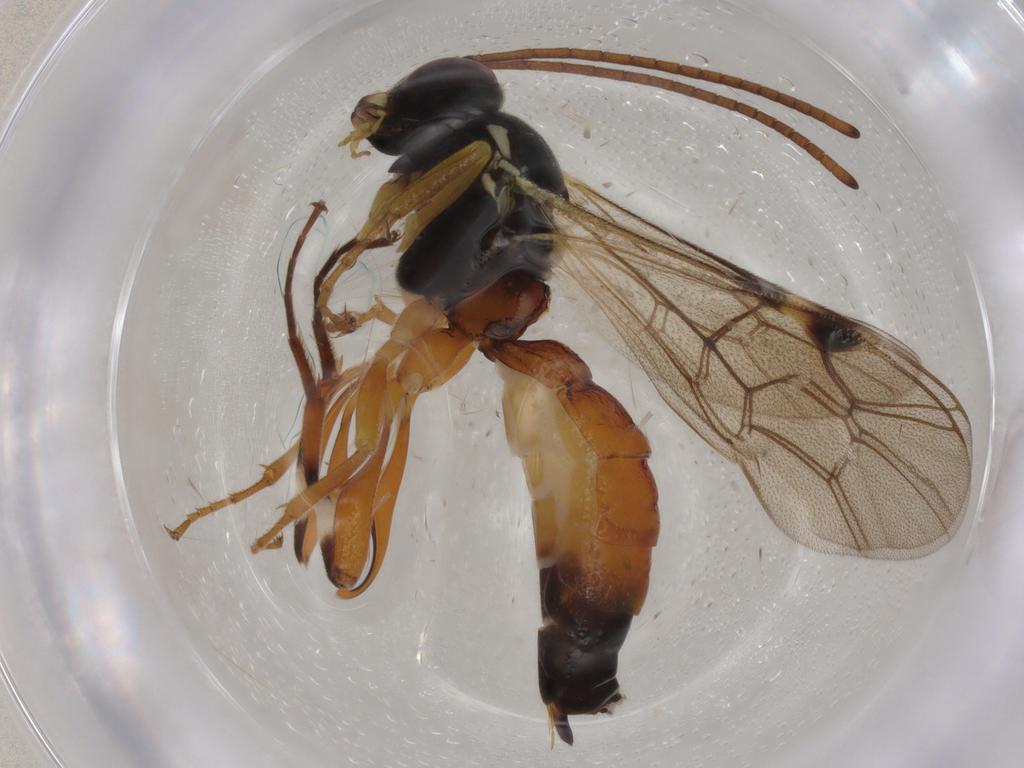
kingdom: Animalia
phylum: Arthropoda
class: Insecta
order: Hymenoptera
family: Braconidae
